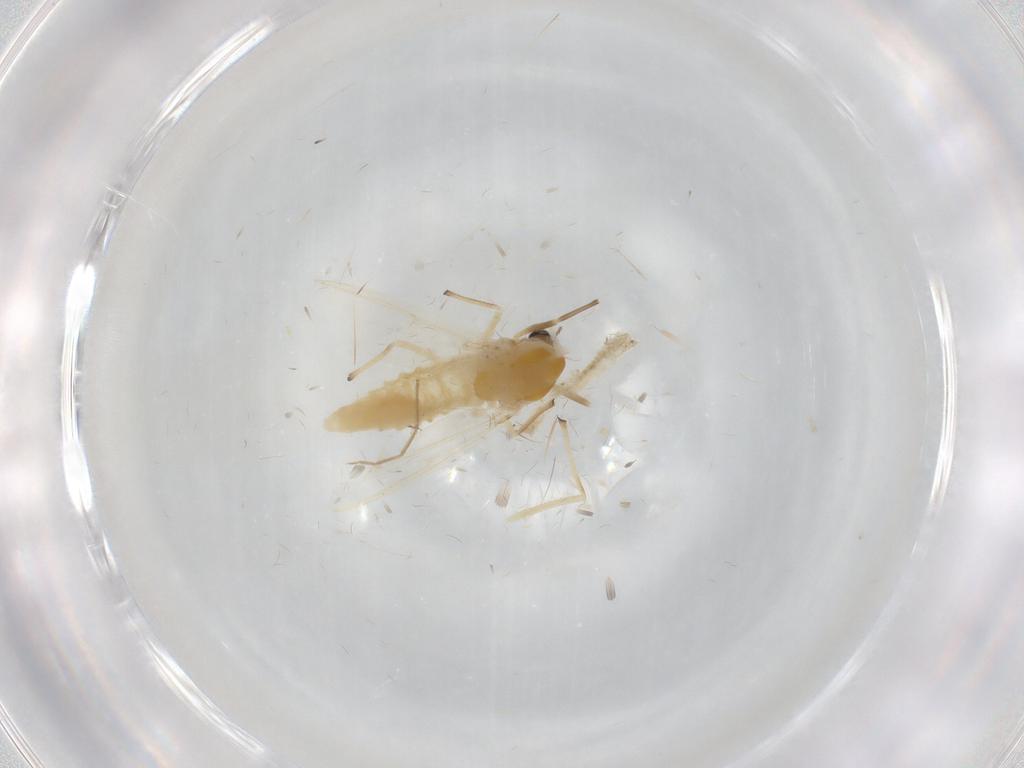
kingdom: Animalia
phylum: Arthropoda
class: Insecta
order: Diptera
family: Chironomidae
